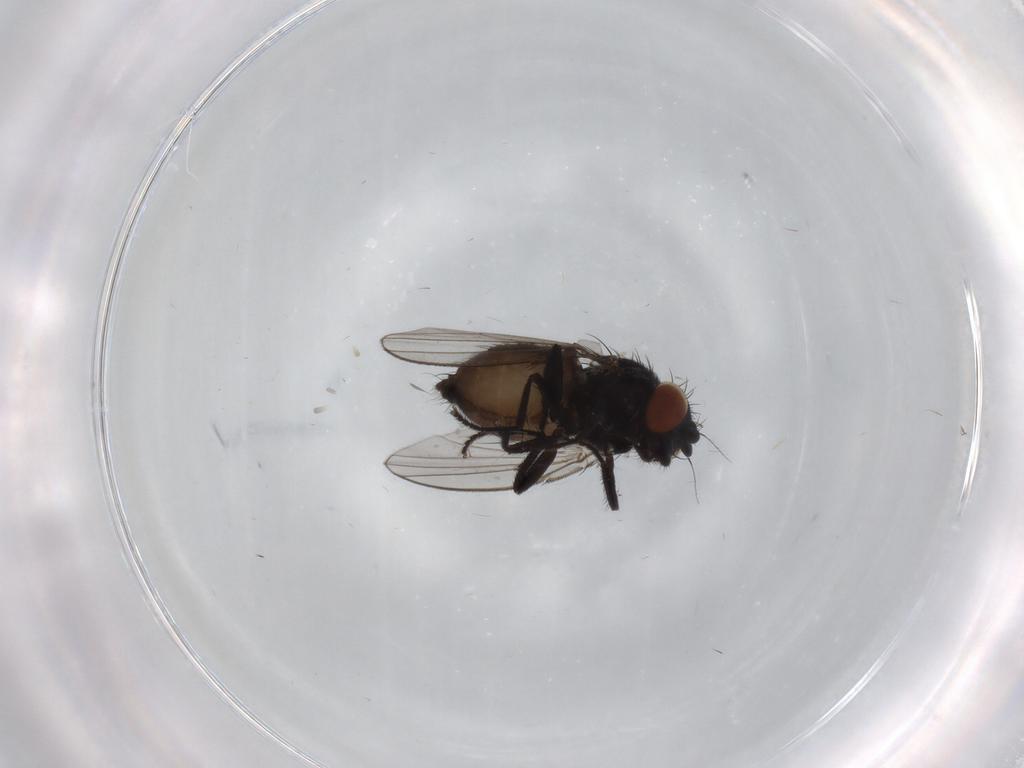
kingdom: Animalia
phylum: Arthropoda
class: Insecta
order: Diptera
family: Milichiidae
